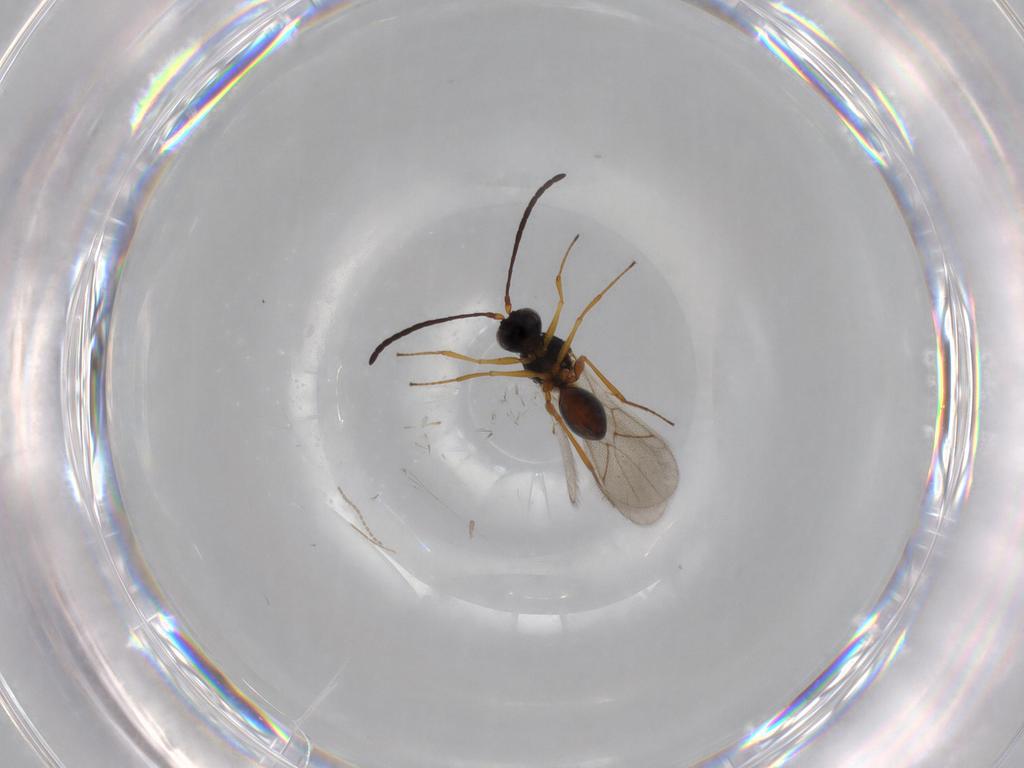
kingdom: Animalia
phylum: Arthropoda
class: Insecta
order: Hymenoptera
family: Figitidae
